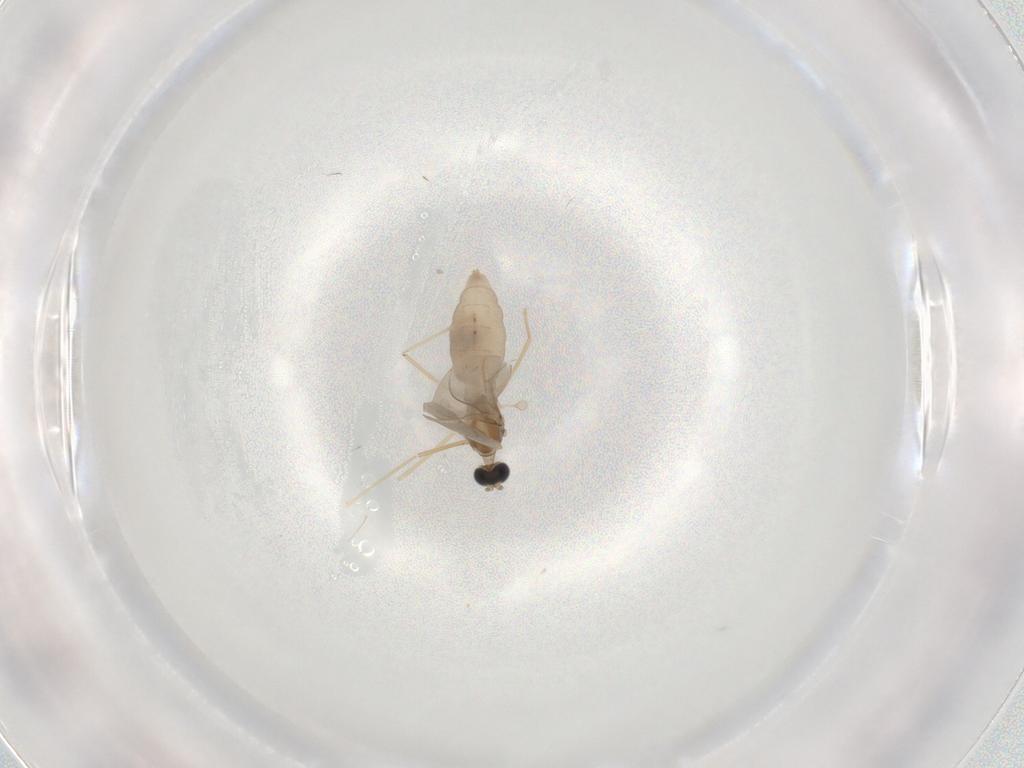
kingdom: Animalia
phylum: Arthropoda
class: Insecta
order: Diptera
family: Cecidomyiidae
